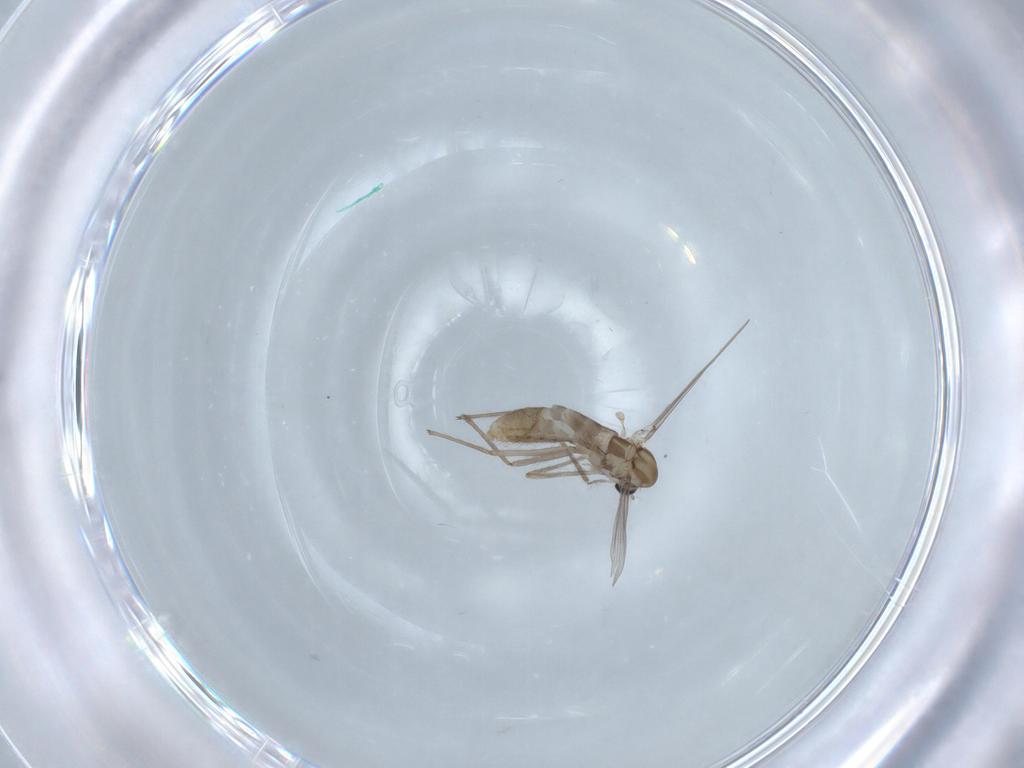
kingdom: Animalia
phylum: Arthropoda
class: Insecta
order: Diptera
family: Chironomidae
